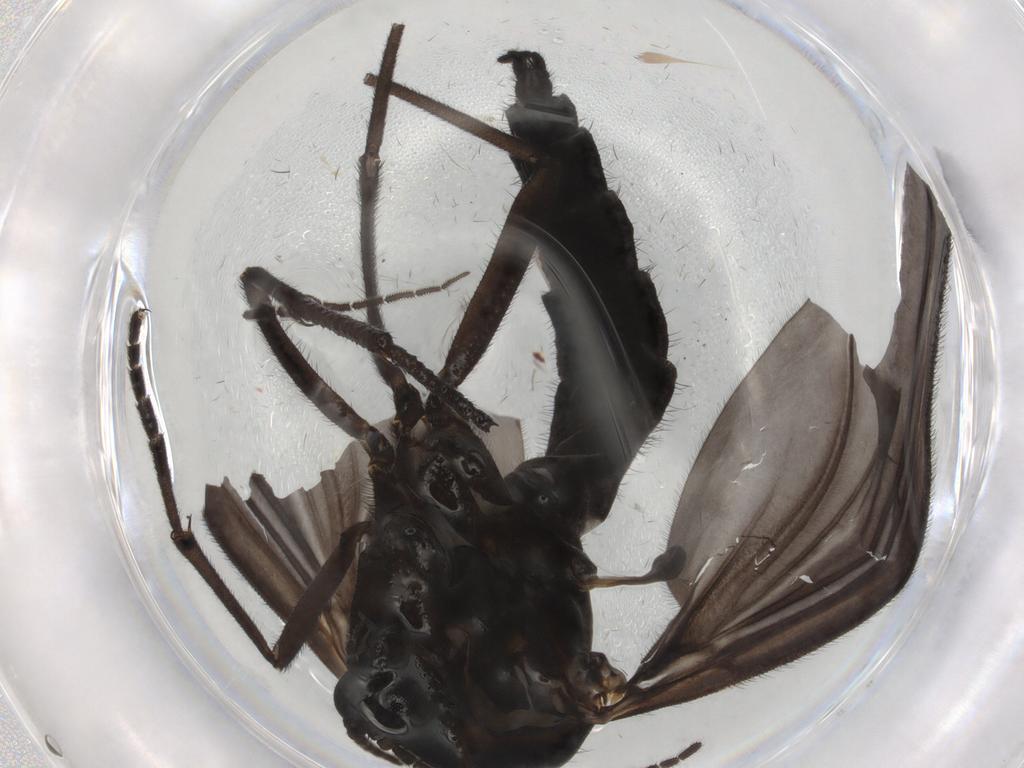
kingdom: Animalia
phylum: Arthropoda
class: Insecta
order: Diptera
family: Sciaridae
